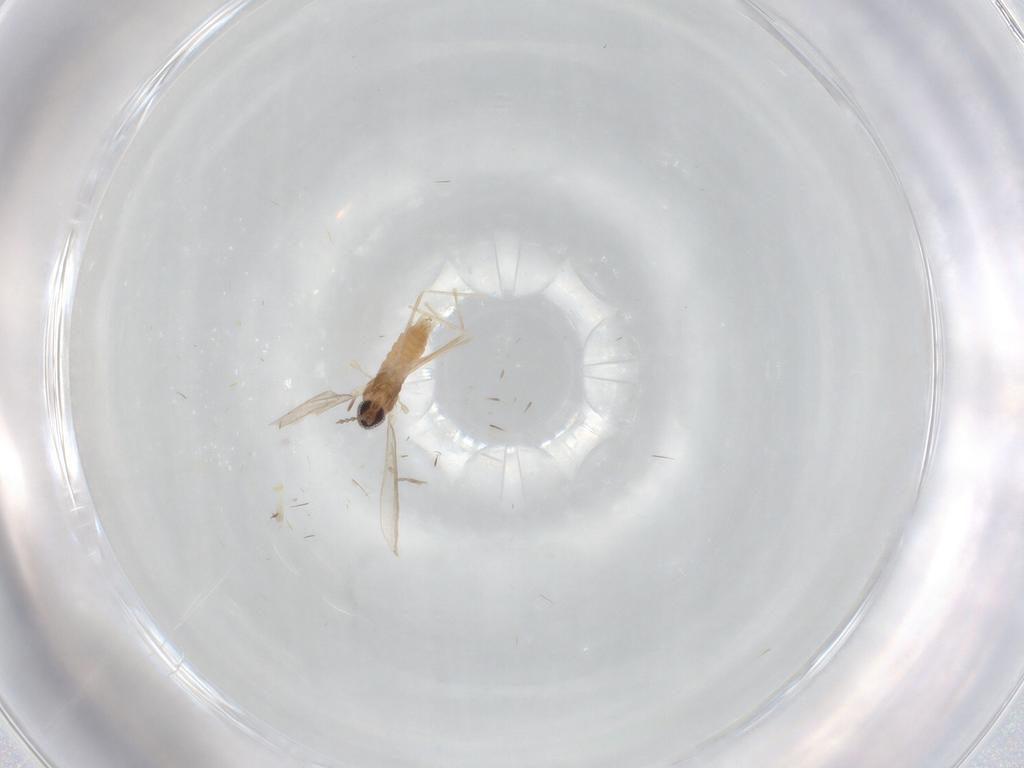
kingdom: Animalia
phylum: Arthropoda
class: Insecta
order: Diptera
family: Cecidomyiidae
